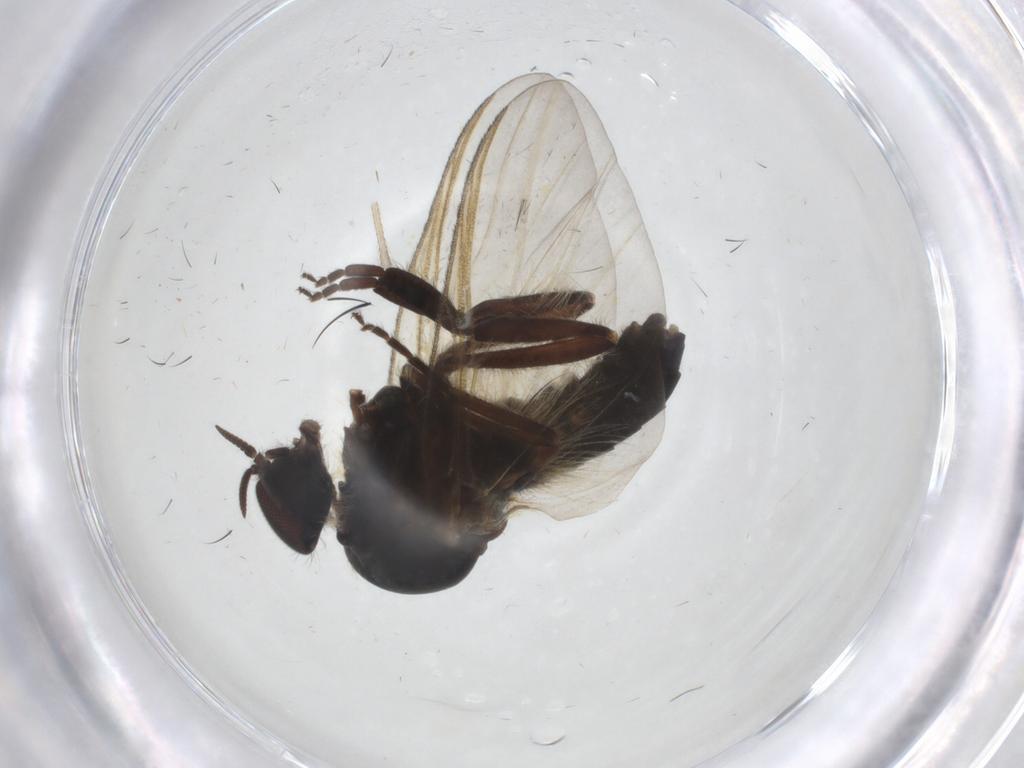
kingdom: Animalia
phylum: Arthropoda
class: Insecta
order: Diptera
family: Simuliidae
